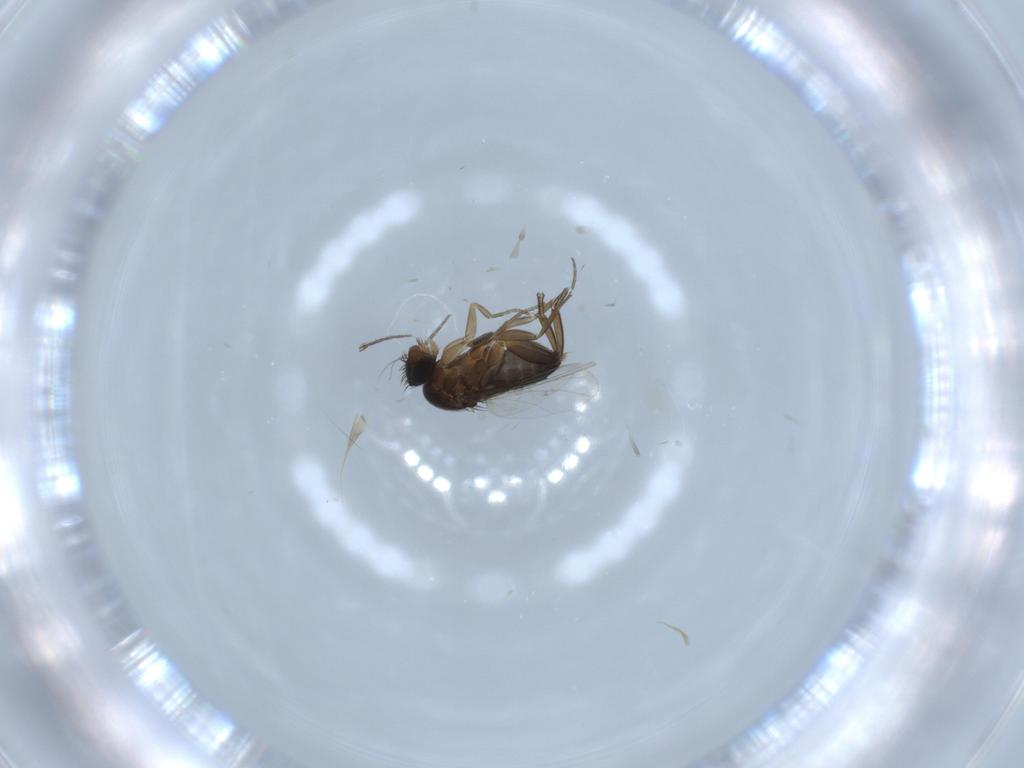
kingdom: Animalia
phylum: Arthropoda
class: Insecta
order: Diptera
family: Phoridae
